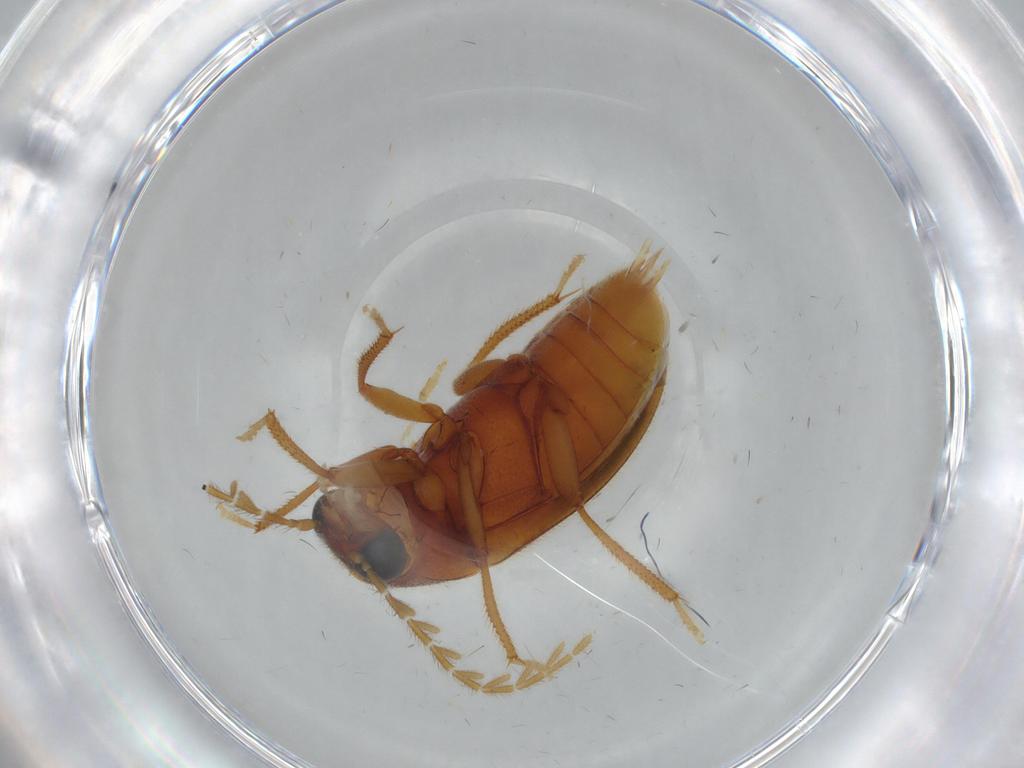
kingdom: Animalia
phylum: Arthropoda
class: Insecta
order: Coleoptera
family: Ptilodactylidae
